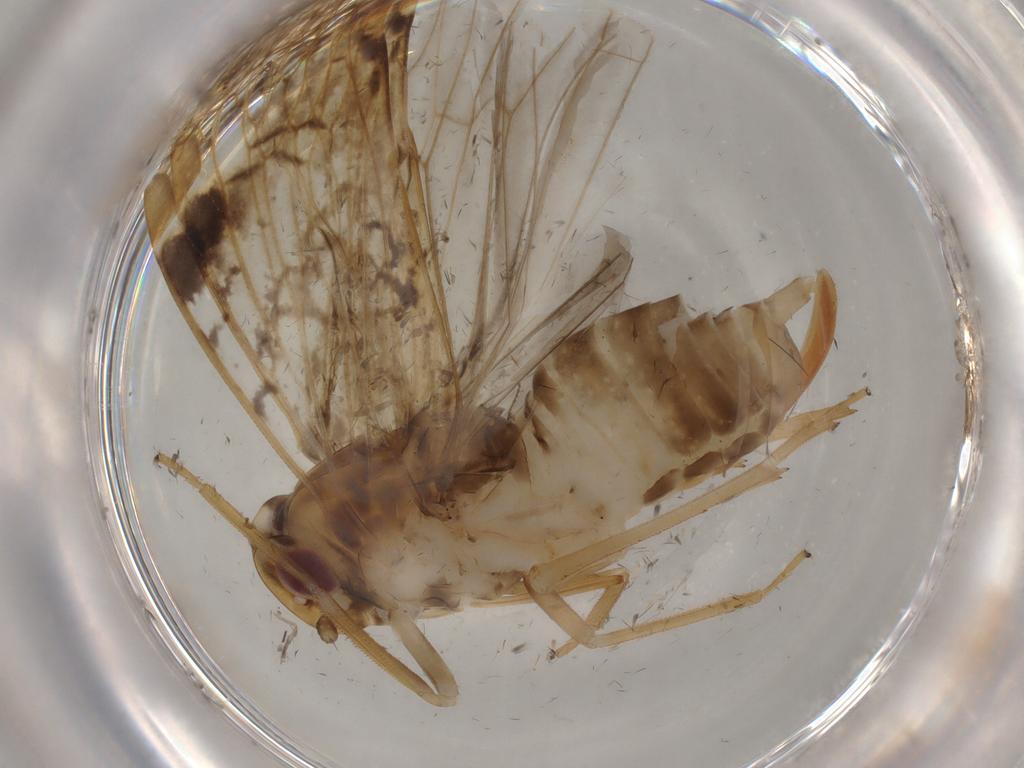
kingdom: Animalia
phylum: Arthropoda
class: Insecta
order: Hemiptera
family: Cixiidae
